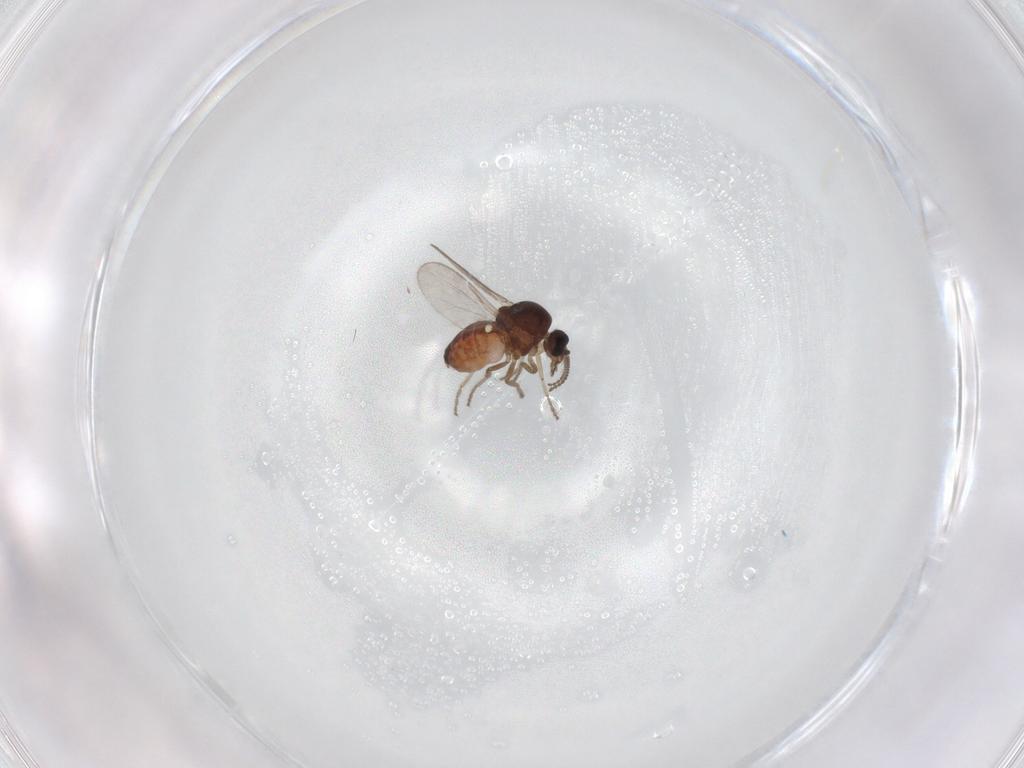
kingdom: Animalia
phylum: Arthropoda
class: Insecta
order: Diptera
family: Ceratopogonidae
